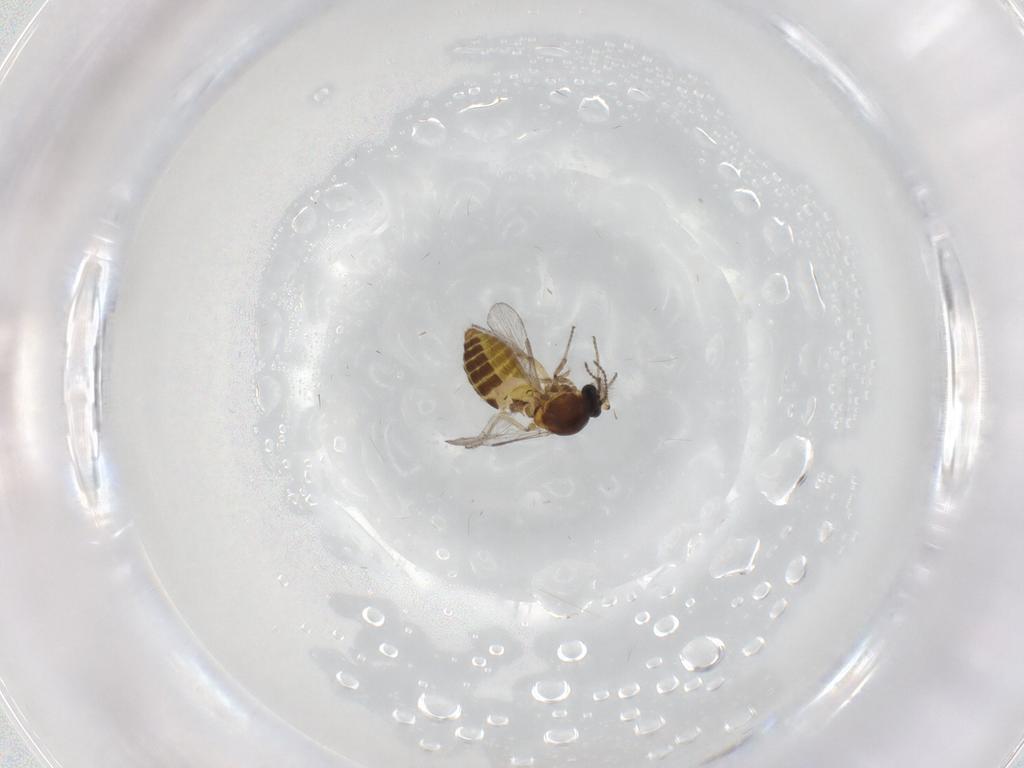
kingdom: Animalia
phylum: Arthropoda
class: Insecta
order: Diptera
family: Ceratopogonidae
